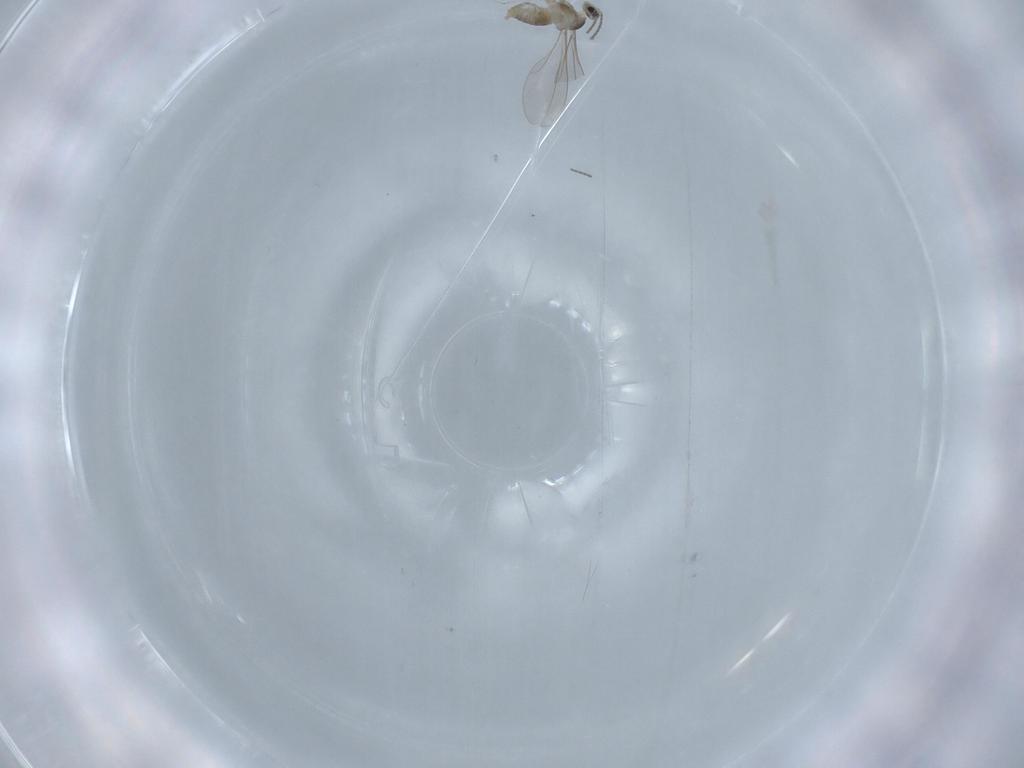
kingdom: Animalia
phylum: Arthropoda
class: Insecta
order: Diptera
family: Cecidomyiidae
